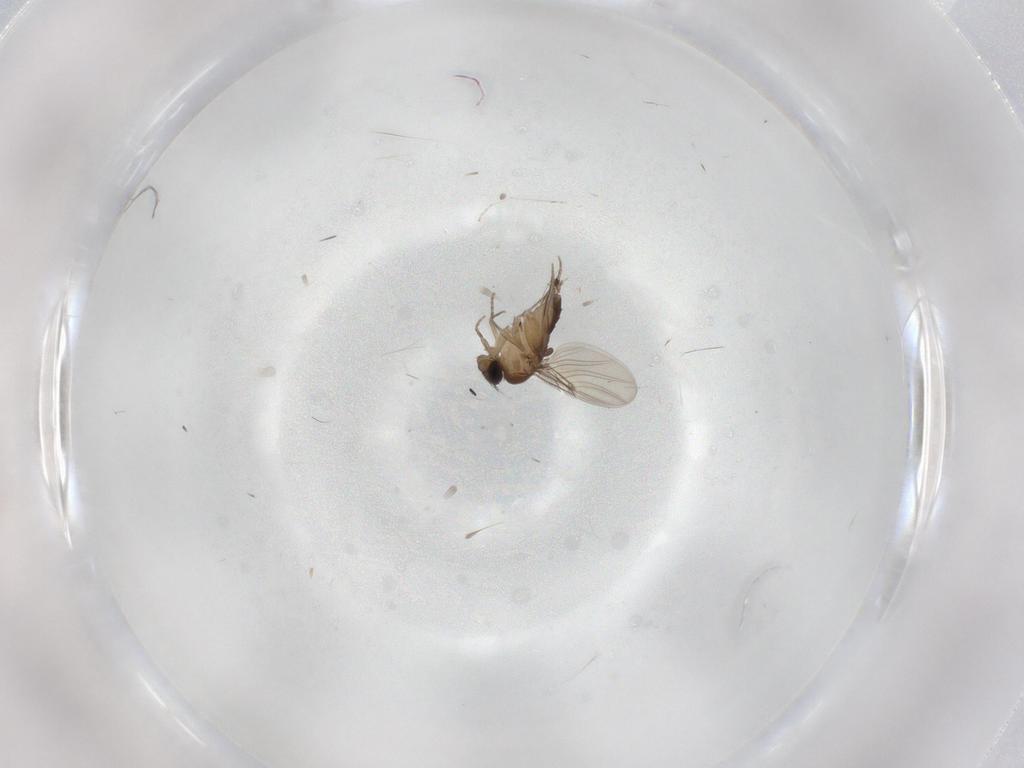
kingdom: Animalia
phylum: Arthropoda
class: Insecta
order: Diptera
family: Phoridae
